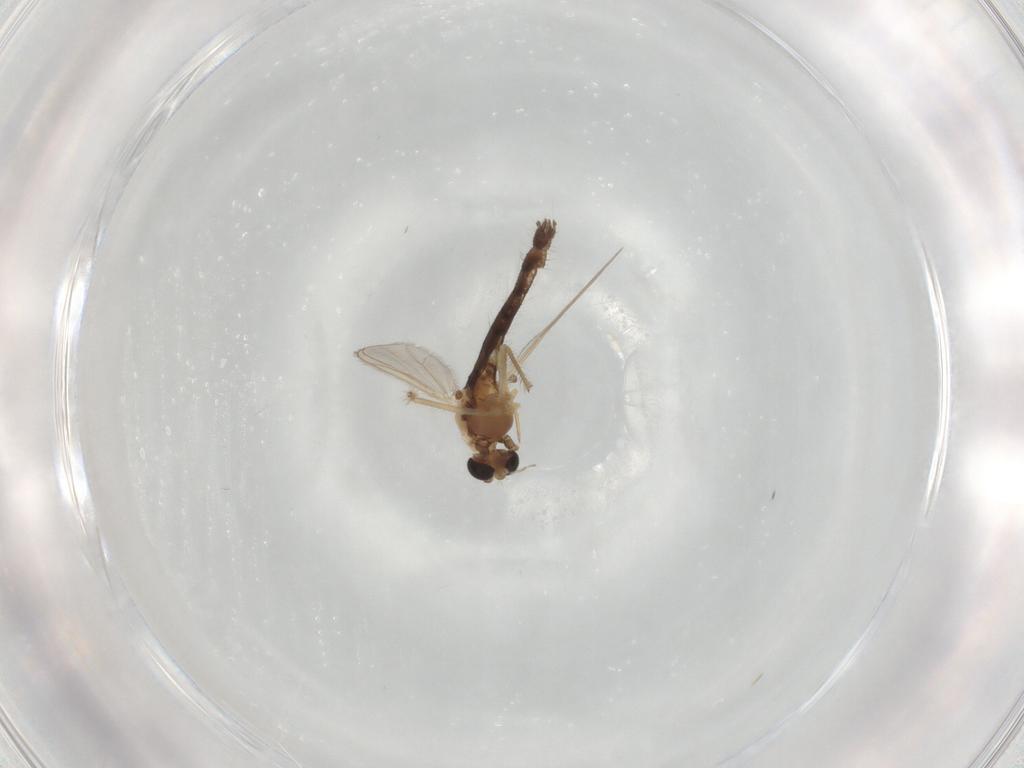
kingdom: Animalia
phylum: Arthropoda
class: Insecta
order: Diptera
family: Chironomidae
